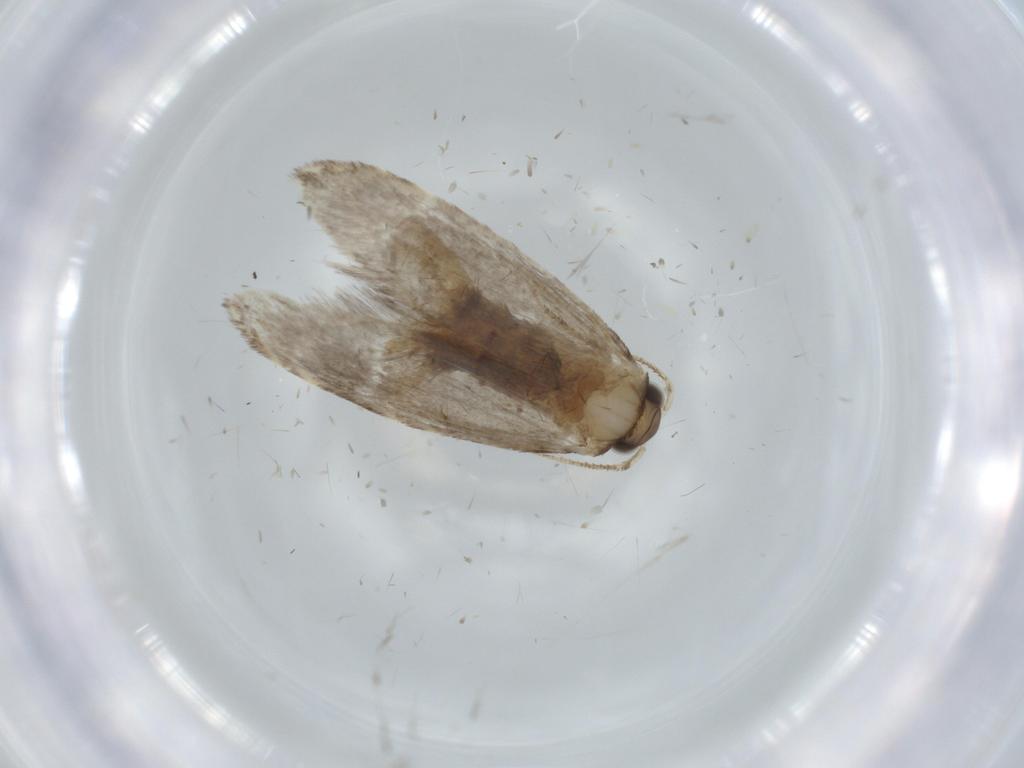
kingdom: Animalia
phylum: Arthropoda
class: Insecta
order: Lepidoptera
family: Tineidae
